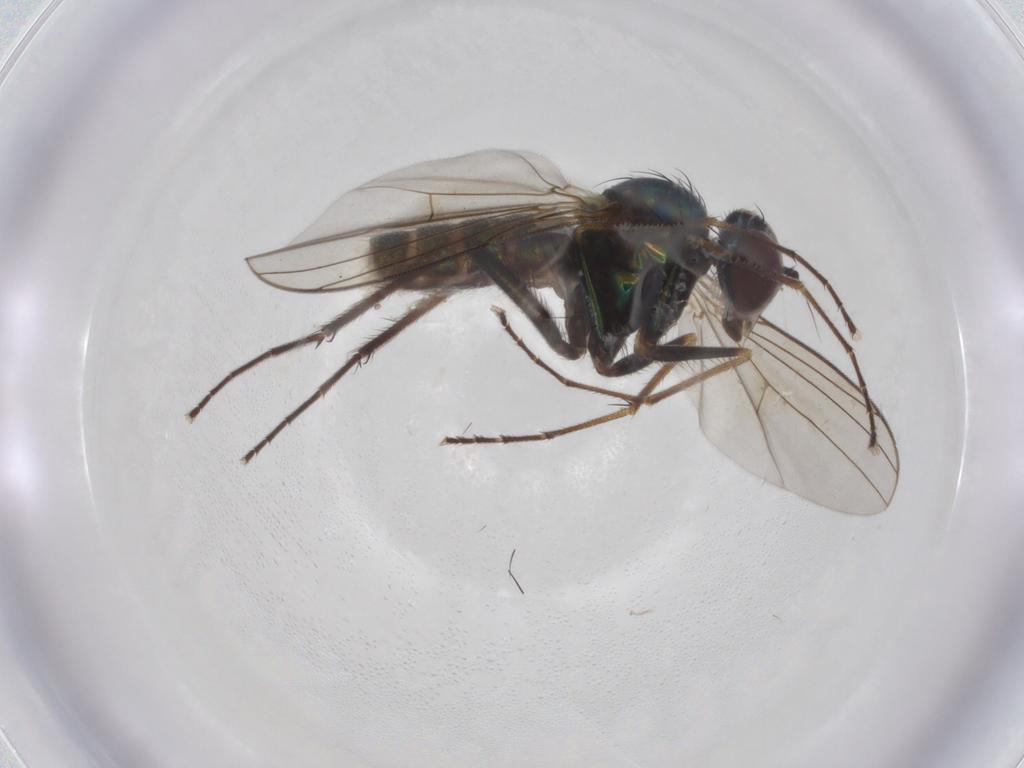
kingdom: Animalia
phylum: Arthropoda
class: Insecta
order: Diptera
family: Dolichopodidae
